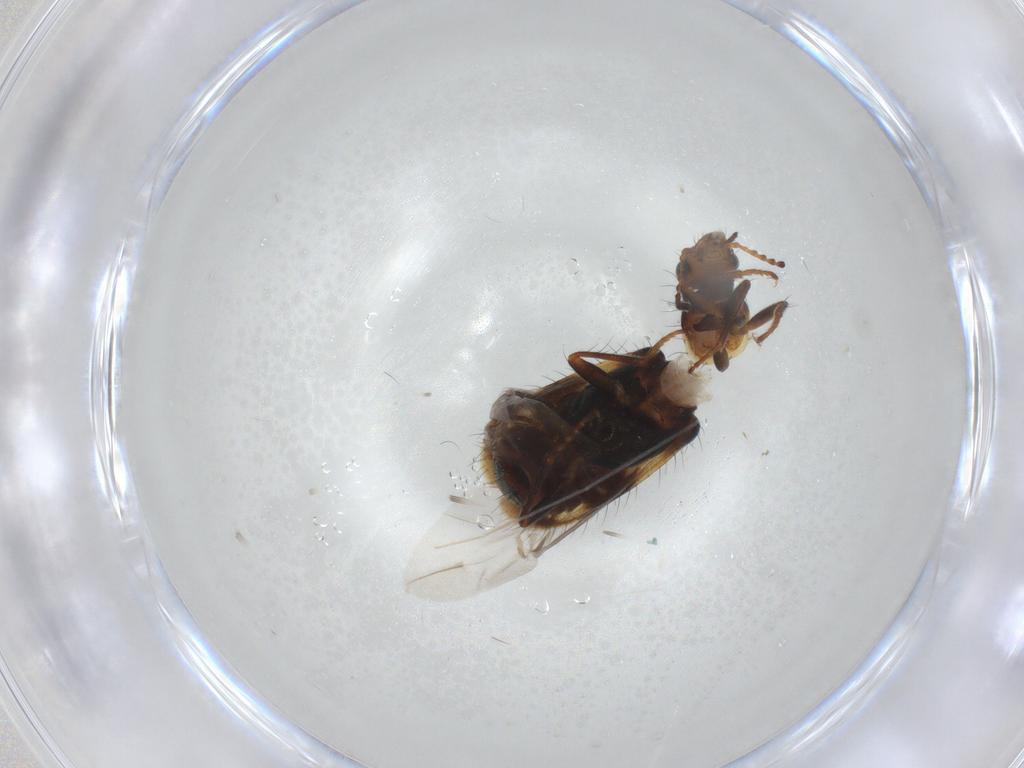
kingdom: Animalia
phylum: Arthropoda
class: Insecta
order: Coleoptera
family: Melyridae
